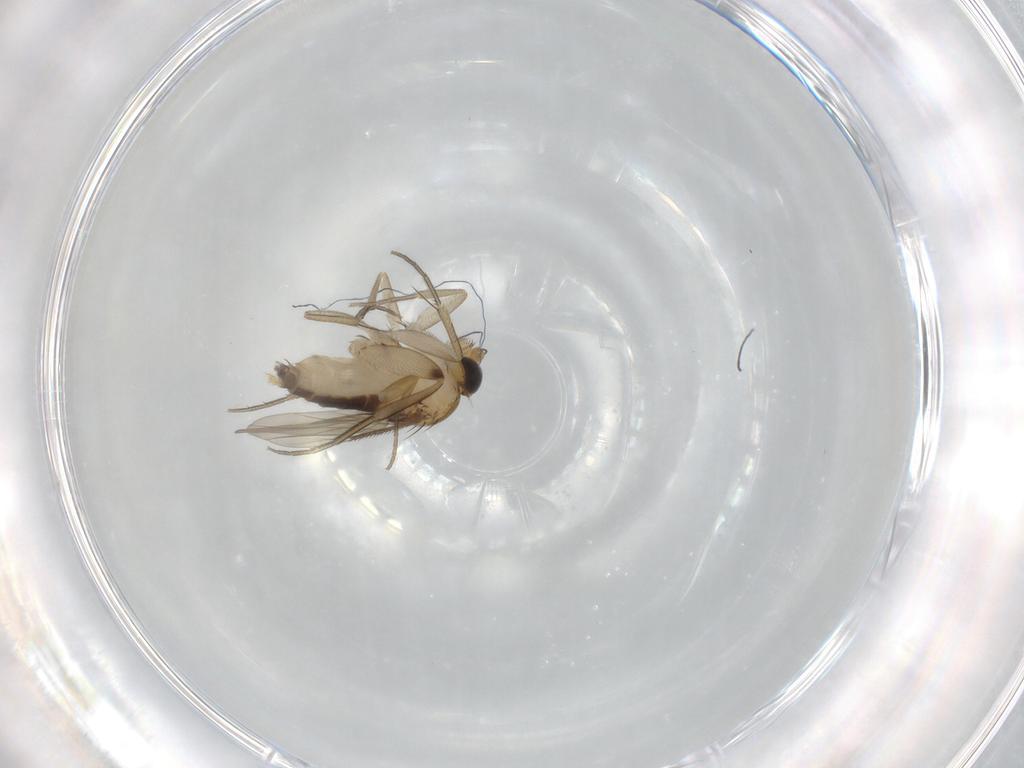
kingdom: Animalia
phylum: Arthropoda
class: Insecta
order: Diptera
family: Phoridae
